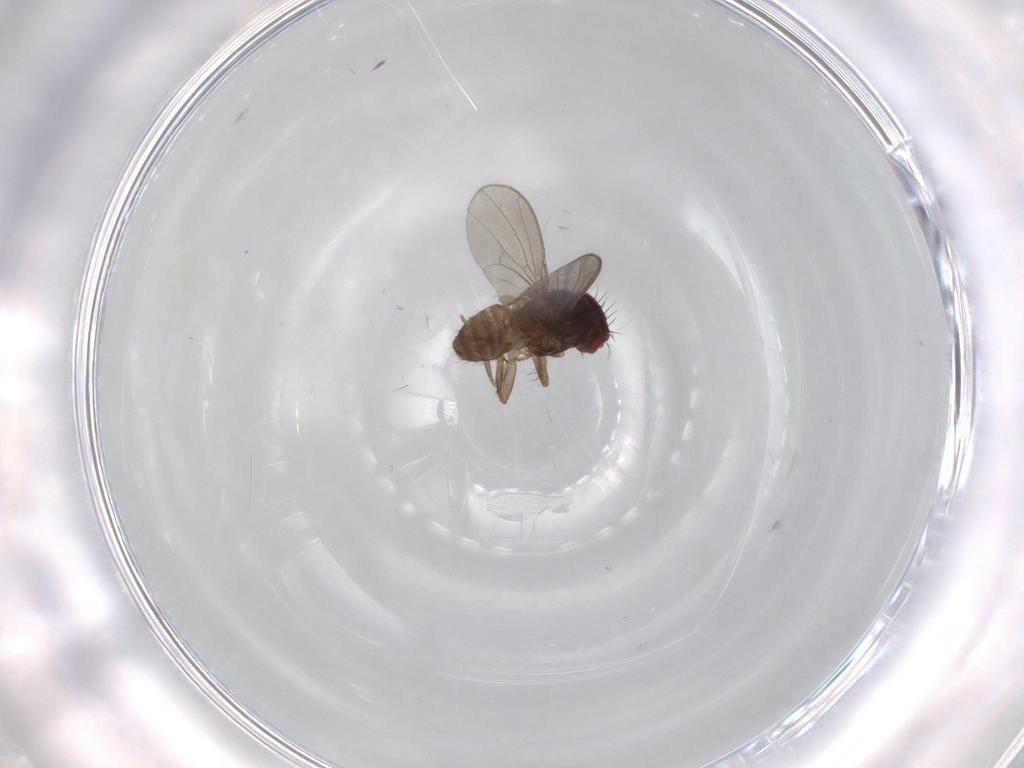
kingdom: Animalia
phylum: Arthropoda
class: Insecta
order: Diptera
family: Drosophilidae
